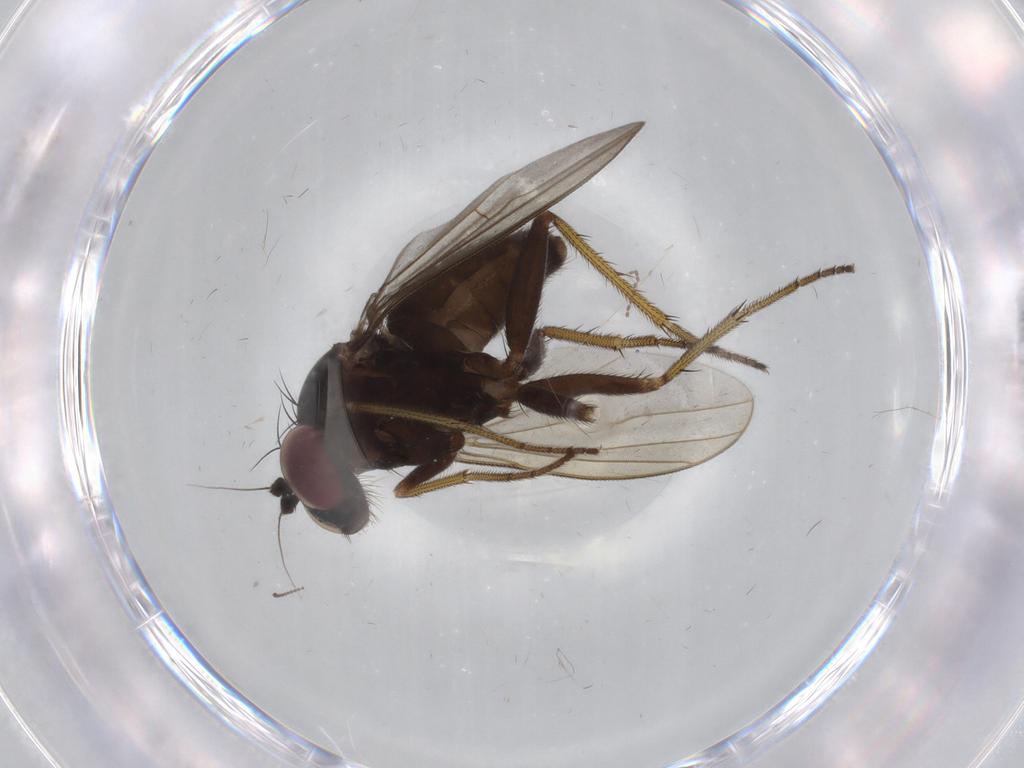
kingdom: Animalia
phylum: Arthropoda
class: Insecta
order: Diptera
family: Dolichopodidae
